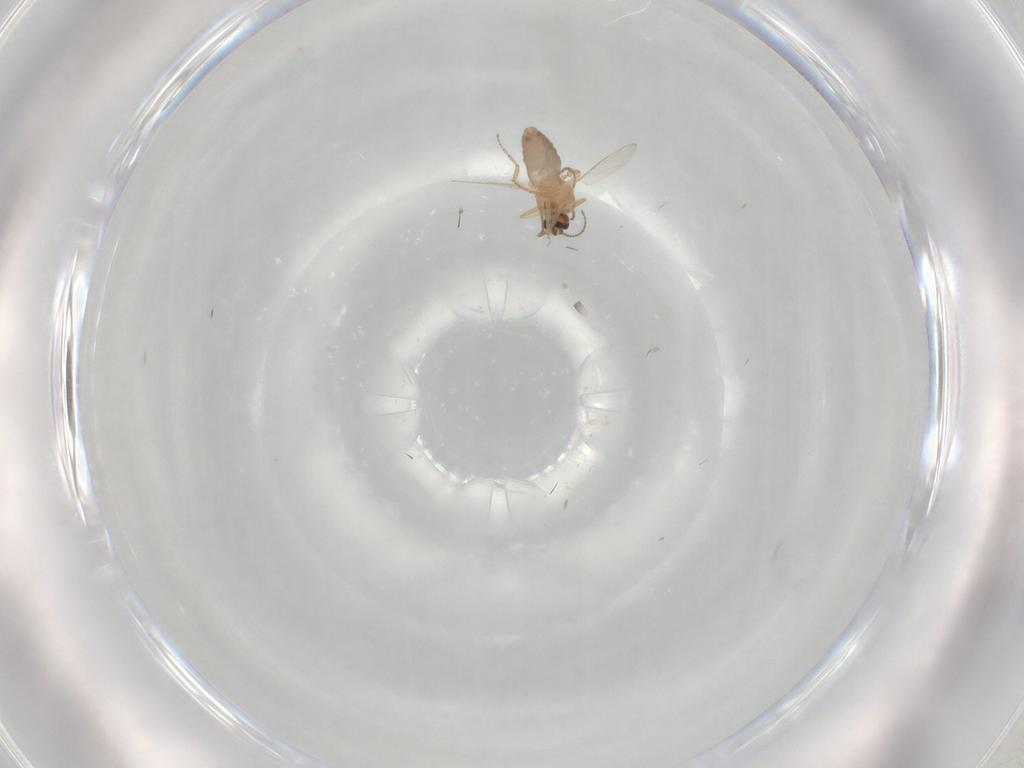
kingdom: Animalia
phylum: Arthropoda
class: Insecta
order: Diptera
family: Ceratopogonidae
